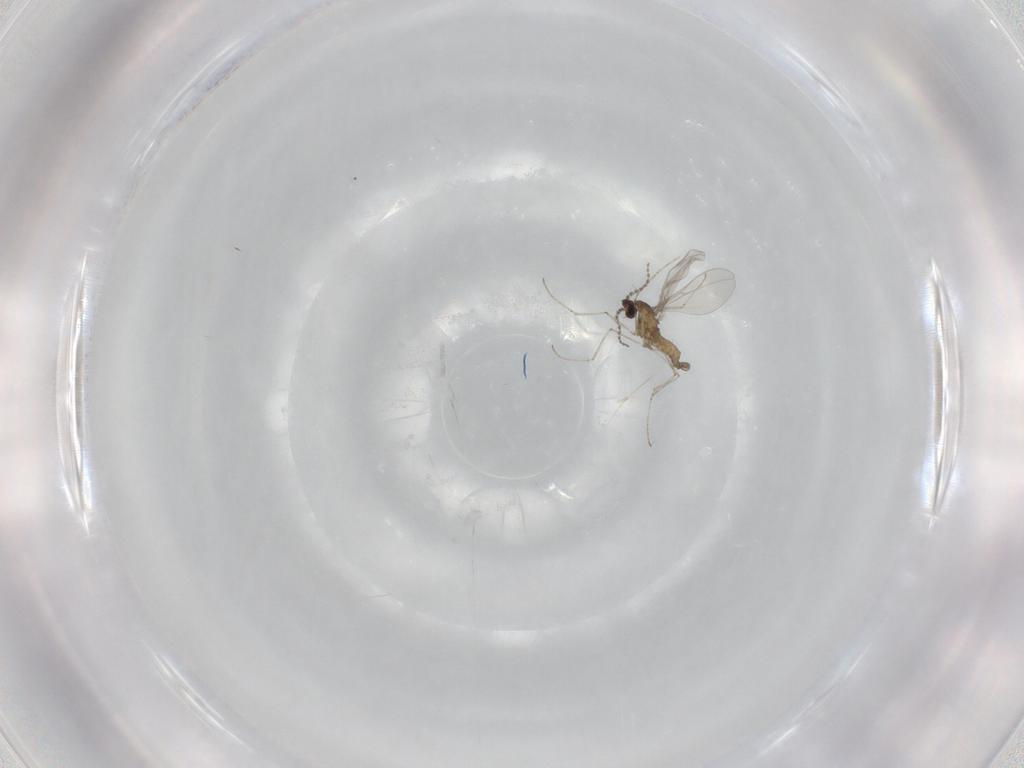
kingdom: Animalia
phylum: Arthropoda
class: Insecta
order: Diptera
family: Cecidomyiidae
